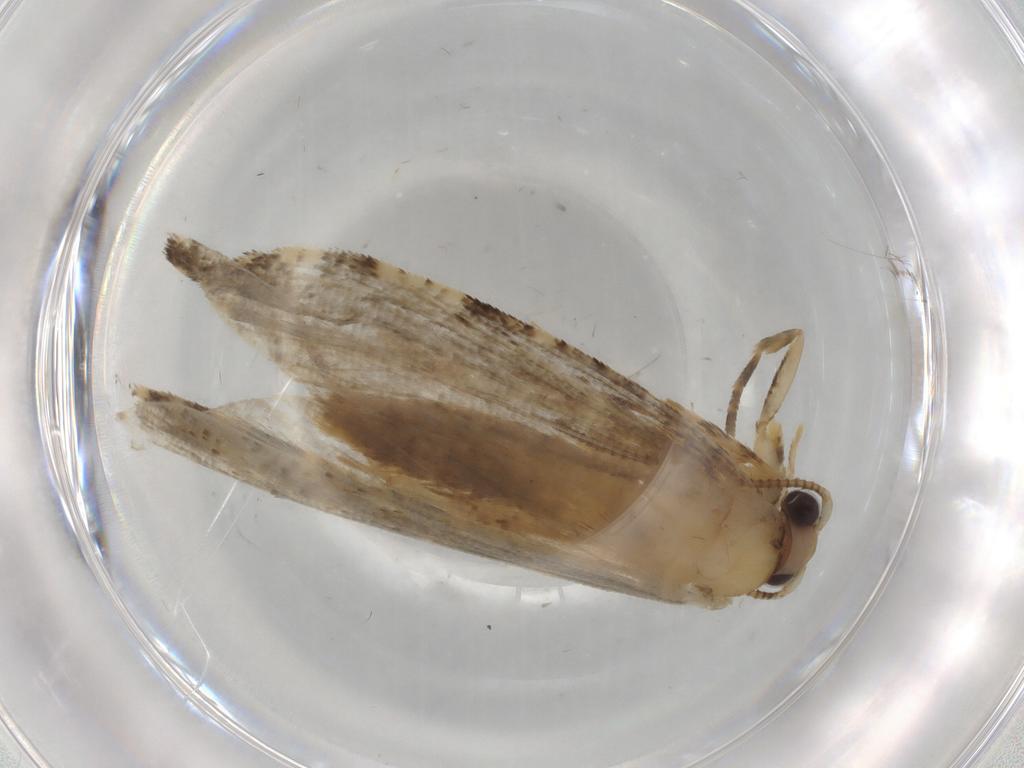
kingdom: Animalia
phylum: Arthropoda
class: Insecta
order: Lepidoptera
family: Tineidae
